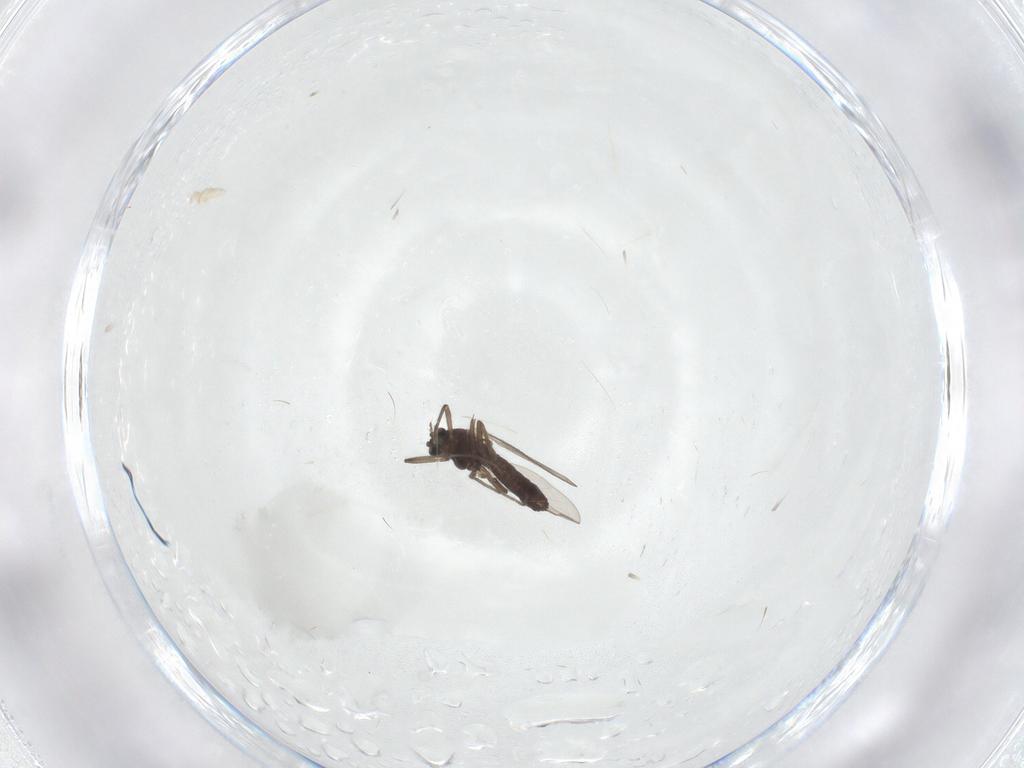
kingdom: Animalia
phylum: Arthropoda
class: Insecta
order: Diptera
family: Chironomidae
